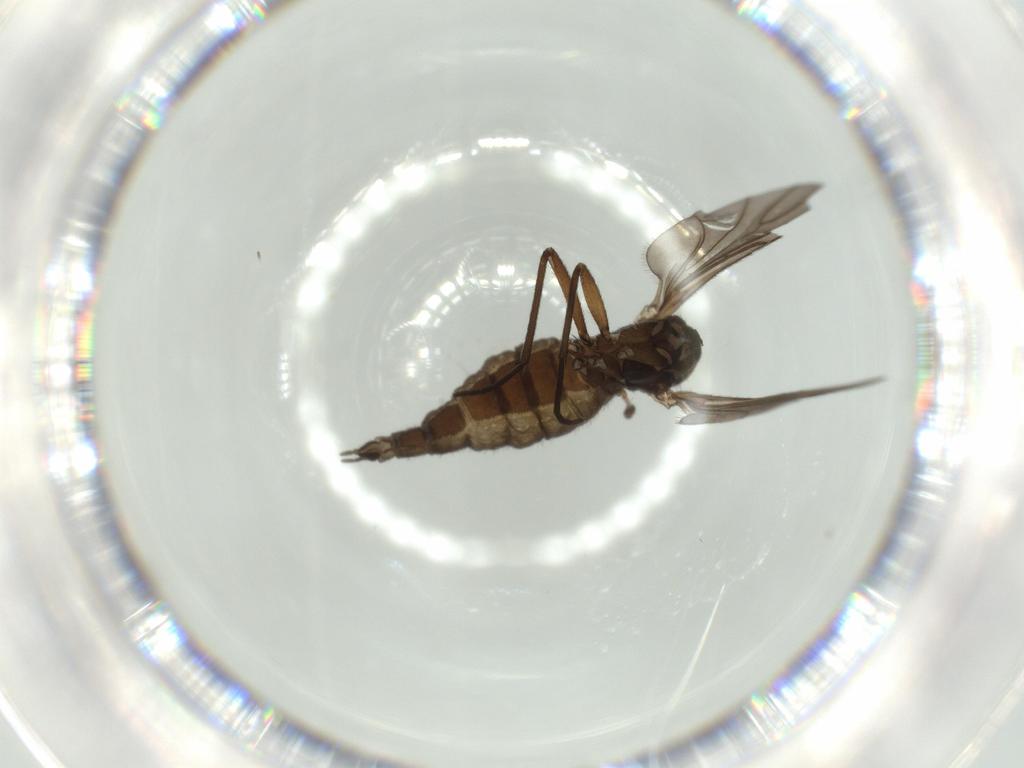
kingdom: Animalia
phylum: Arthropoda
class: Insecta
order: Diptera
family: Sciaridae
